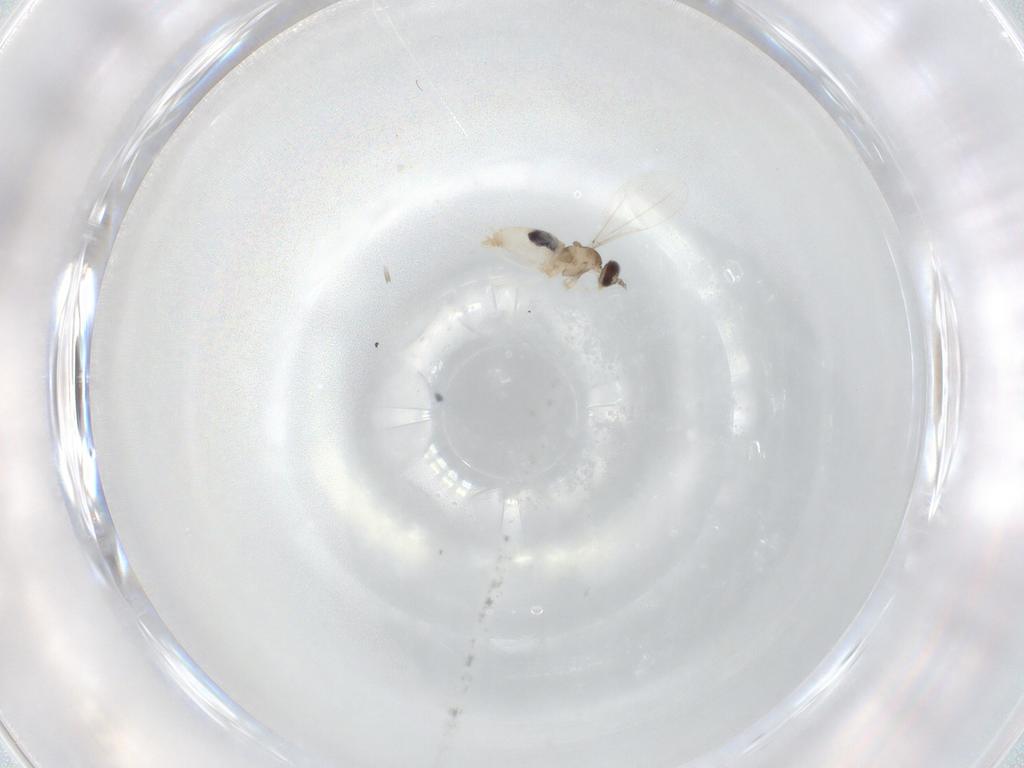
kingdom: Animalia
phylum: Arthropoda
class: Insecta
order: Diptera
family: Cecidomyiidae
